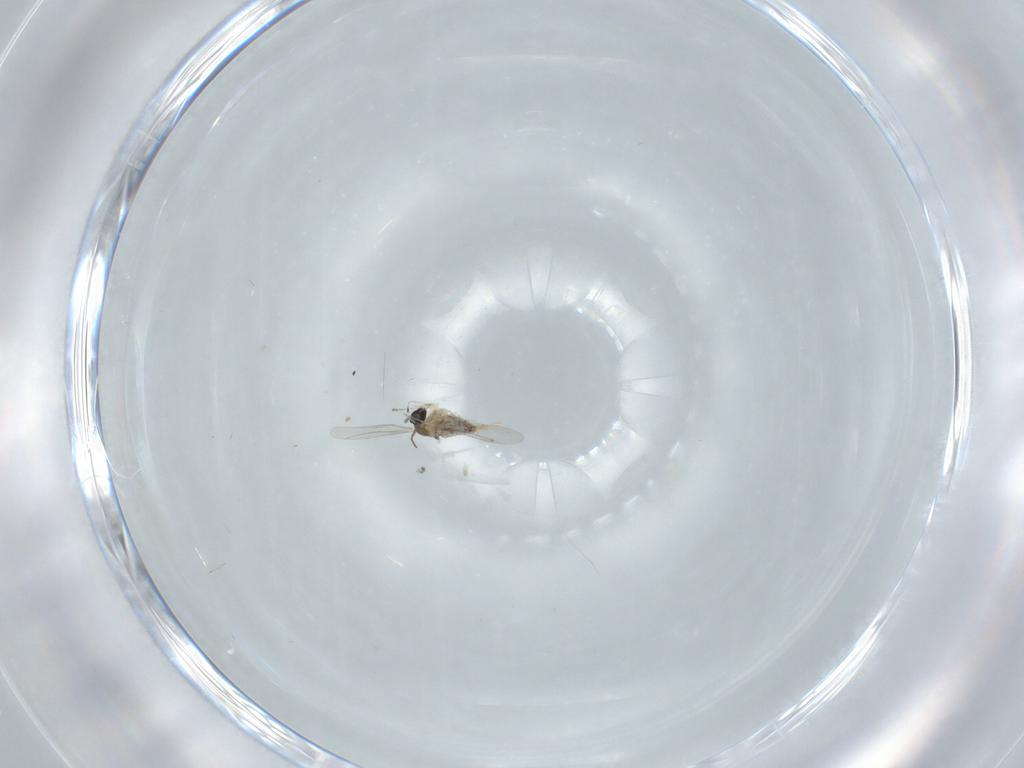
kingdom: Animalia
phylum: Arthropoda
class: Insecta
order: Diptera
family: Cecidomyiidae
